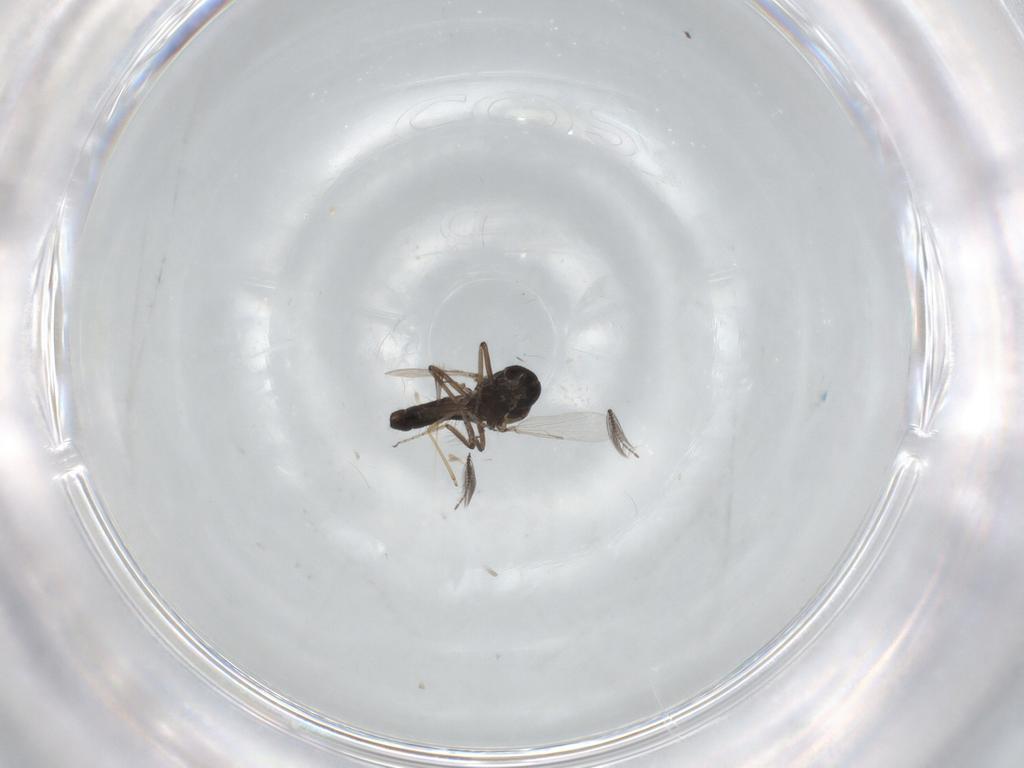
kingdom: Animalia
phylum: Arthropoda
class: Insecta
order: Diptera
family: Ceratopogonidae
